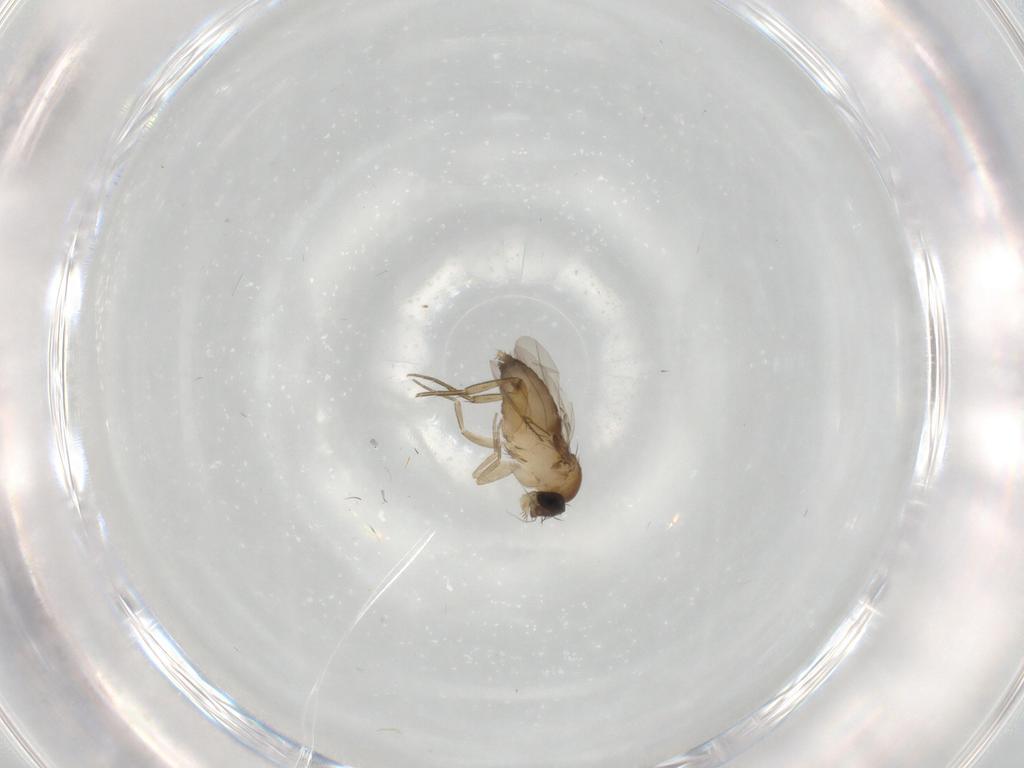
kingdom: Animalia
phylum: Arthropoda
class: Insecta
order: Diptera
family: Phoridae
